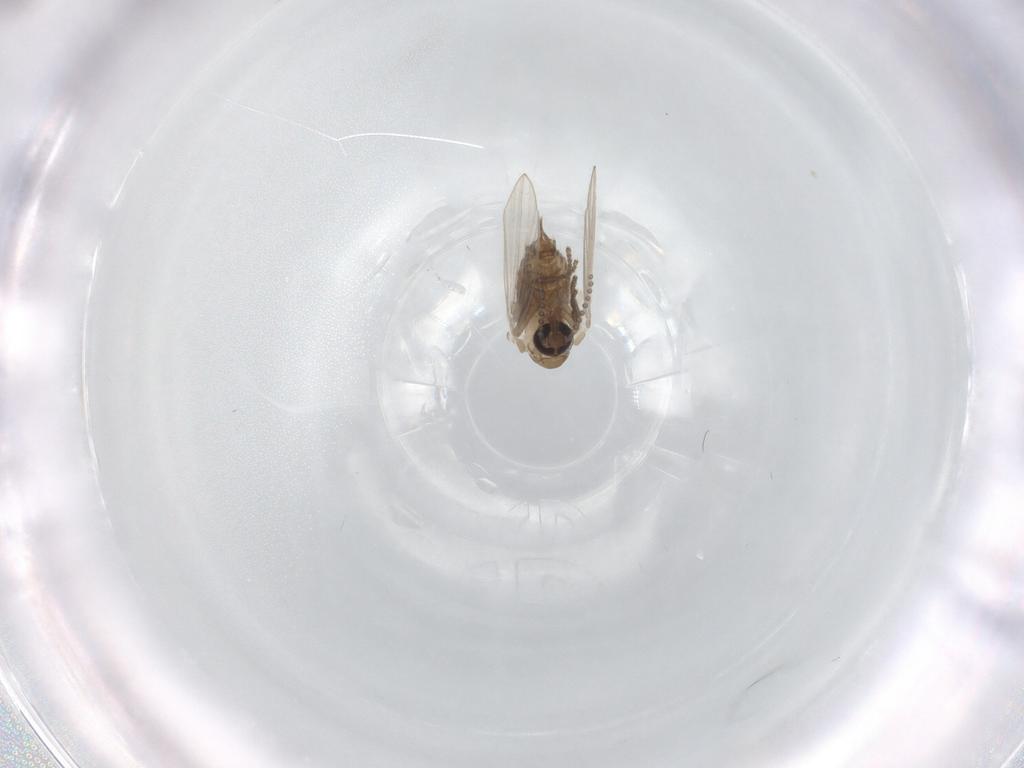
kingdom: Animalia
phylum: Arthropoda
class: Insecta
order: Diptera
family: Psychodidae
